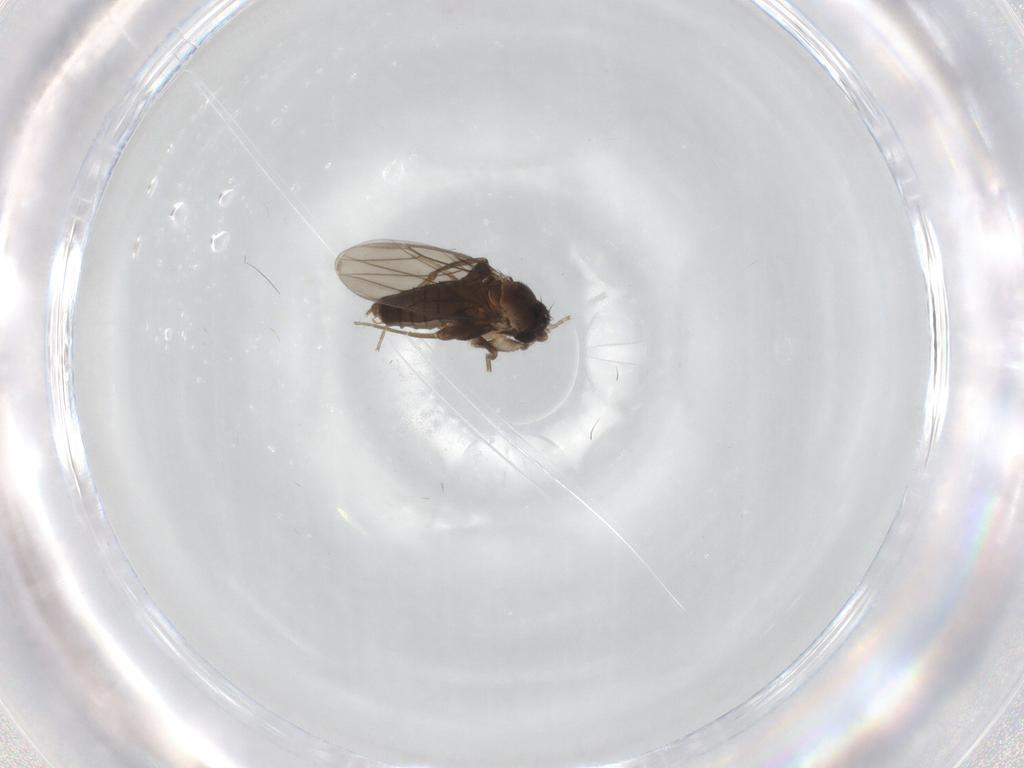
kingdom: Animalia
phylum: Arthropoda
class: Insecta
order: Diptera
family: Phoridae
